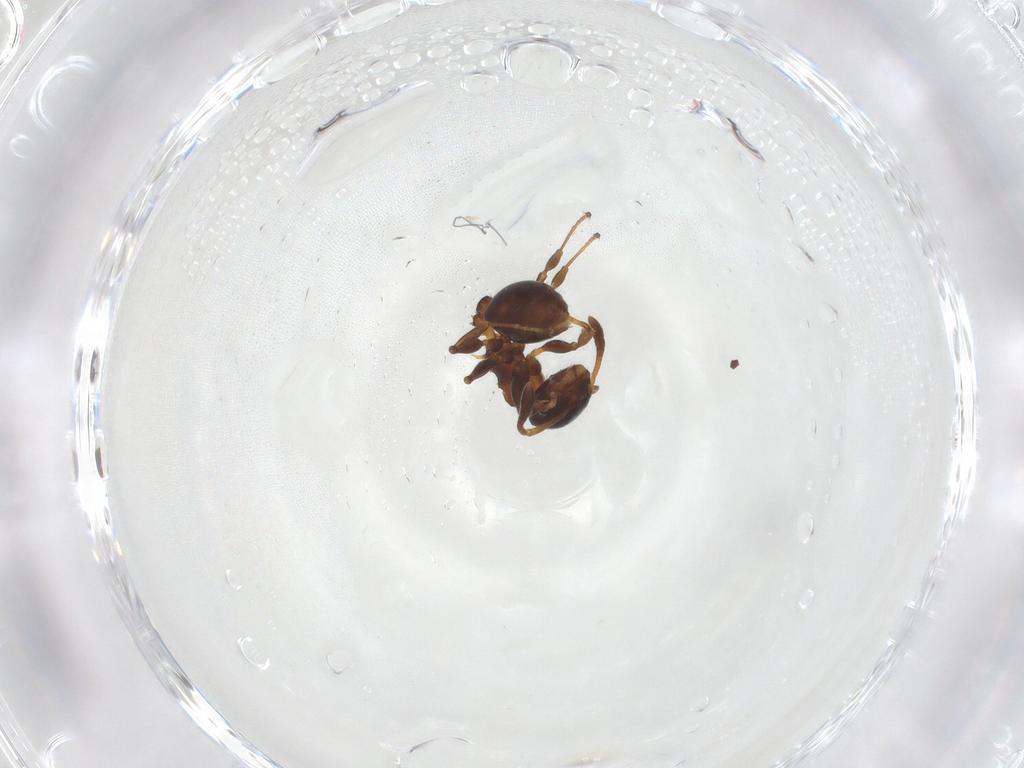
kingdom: Animalia
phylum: Arthropoda
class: Insecta
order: Hymenoptera
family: Formicidae
